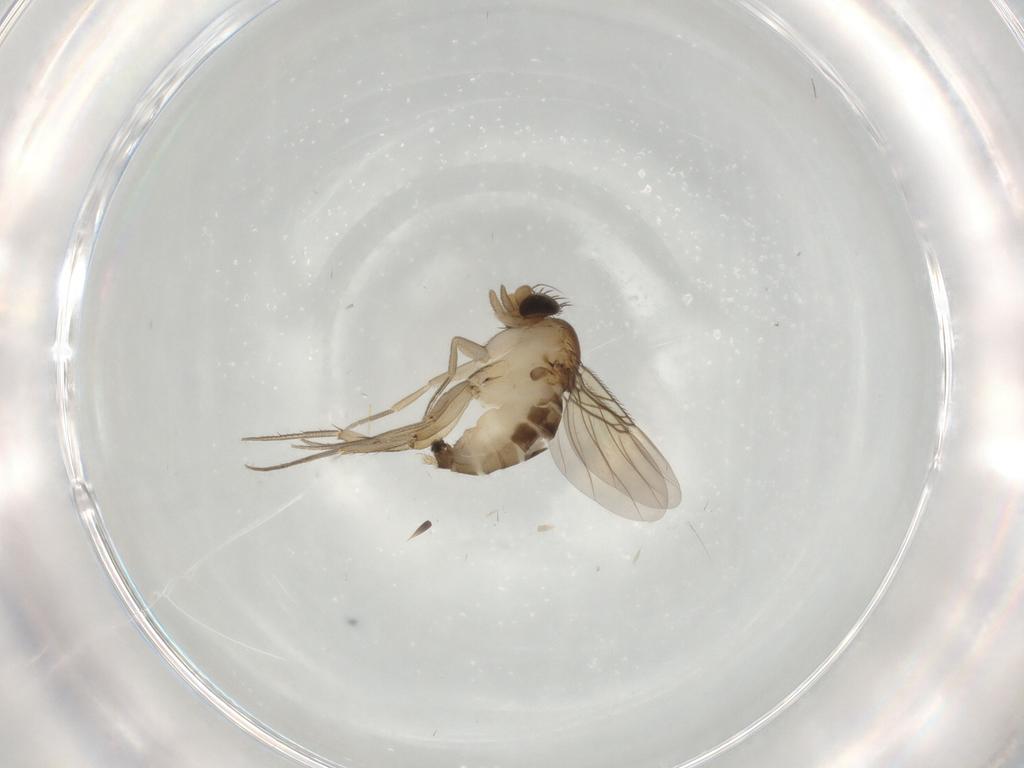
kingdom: Animalia
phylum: Arthropoda
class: Insecta
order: Diptera
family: Phoridae
